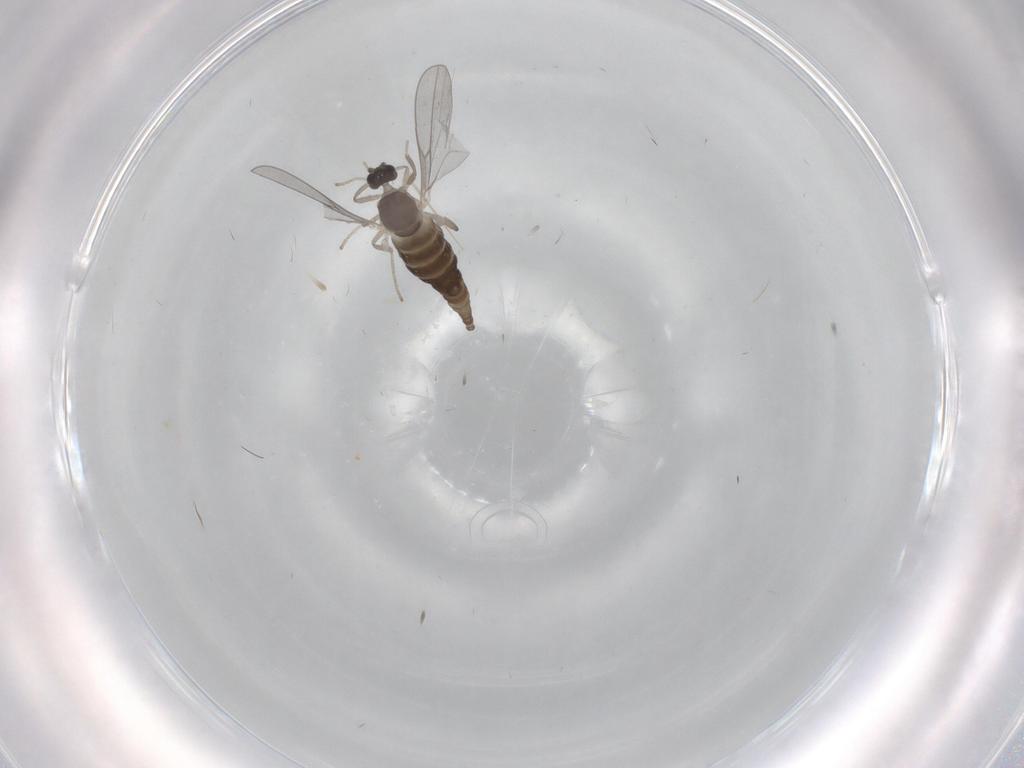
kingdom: Animalia
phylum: Arthropoda
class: Insecta
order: Diptera
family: Cecidomyiidae
